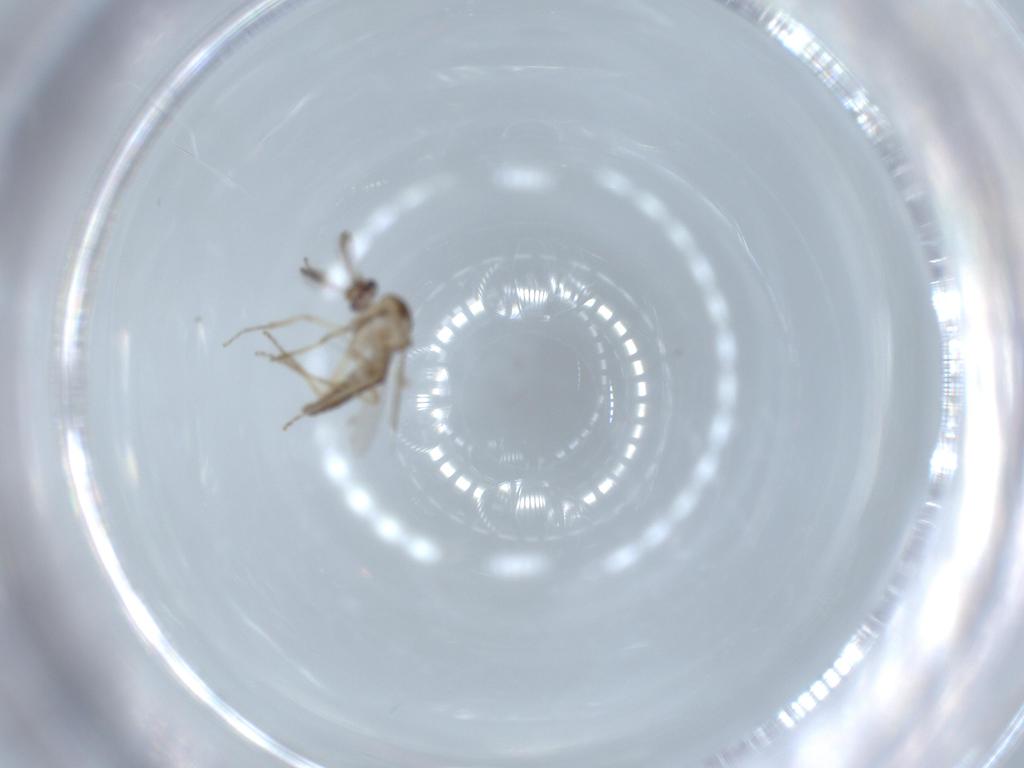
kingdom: Animalia
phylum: Arthropoda
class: Insecta
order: Diptera
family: Ceratopogonidae
